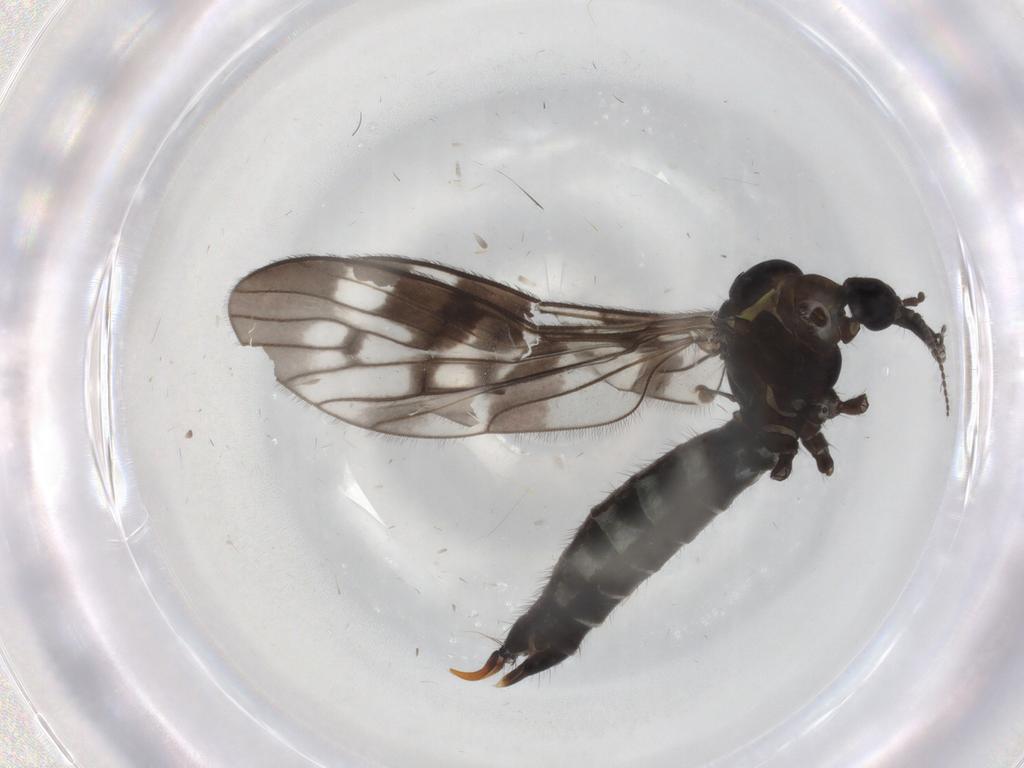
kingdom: Animalia
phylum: Arthropoda
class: Insecta
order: Diptera
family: Limoniidae
